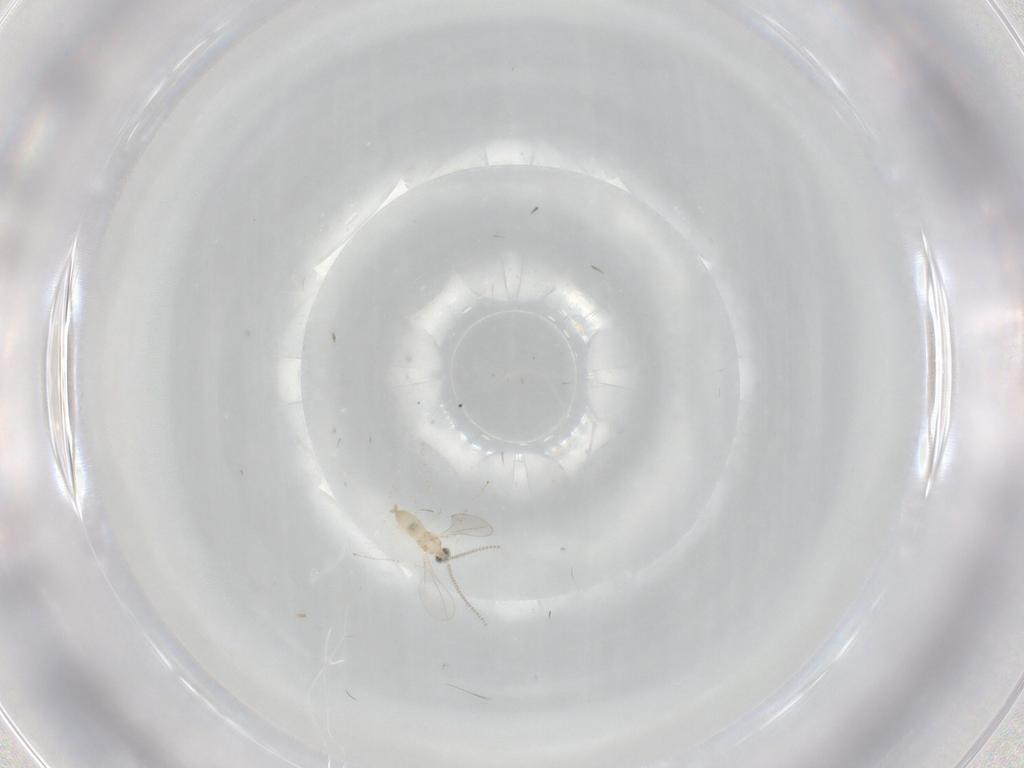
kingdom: Animalia
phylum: Arthropoda
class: Insecta
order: Diptera
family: Cecidomyiidae
